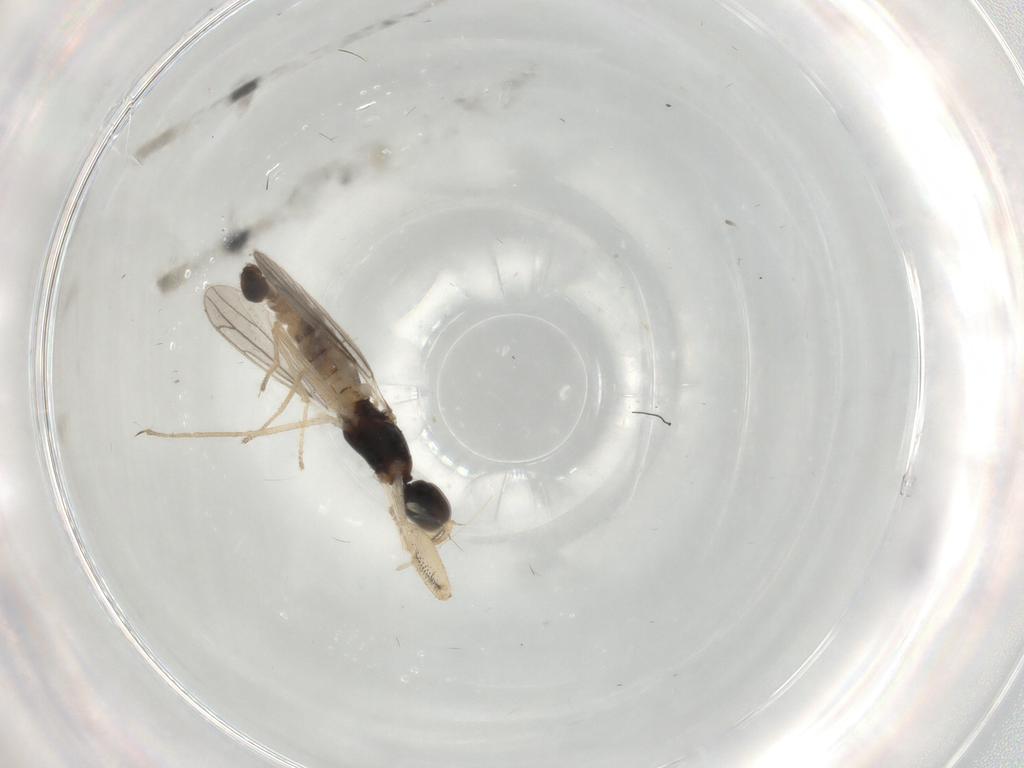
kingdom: Animalia
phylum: Arthropoda
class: Insecta
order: Diptera
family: Empididae
